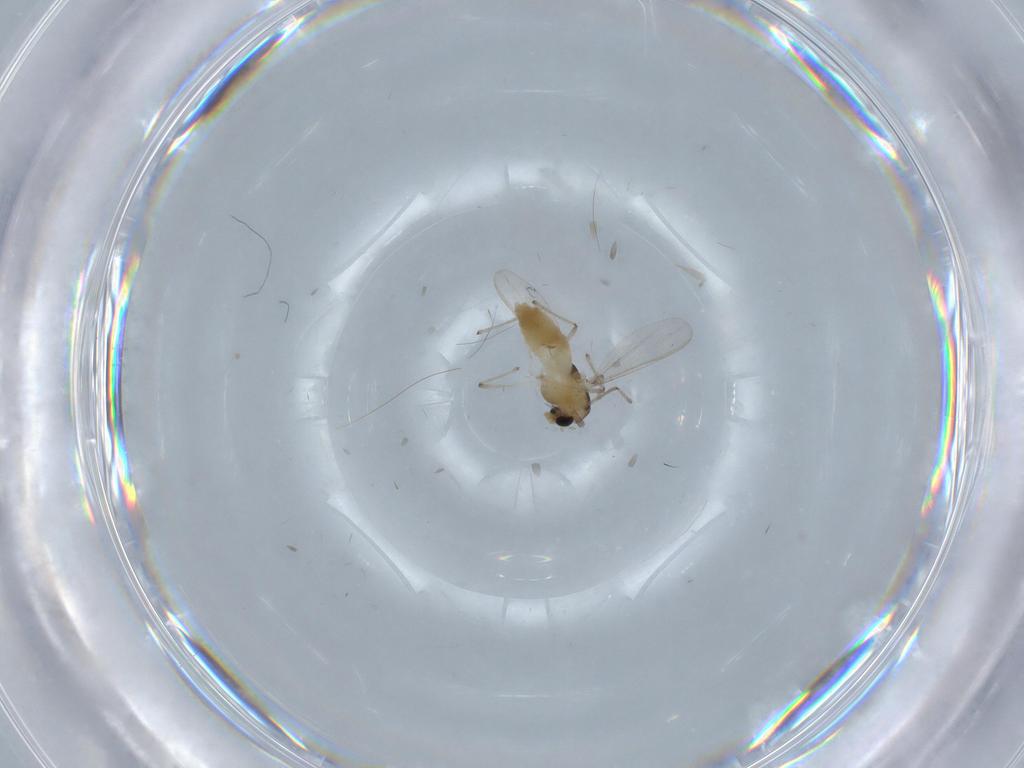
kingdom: Animalia
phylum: Arthropoda
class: Insecta
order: Diptera
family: Chironomidae
